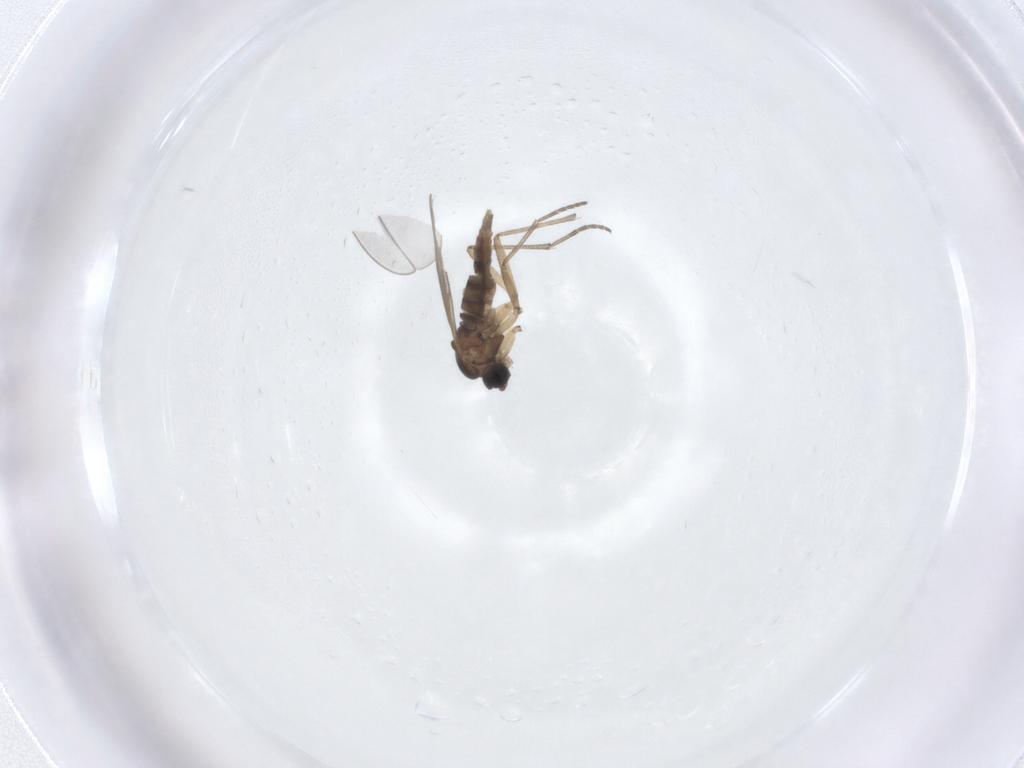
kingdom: Animalia
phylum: Arthropoda
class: Insecta
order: Diptera
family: Cecidomyiidae
